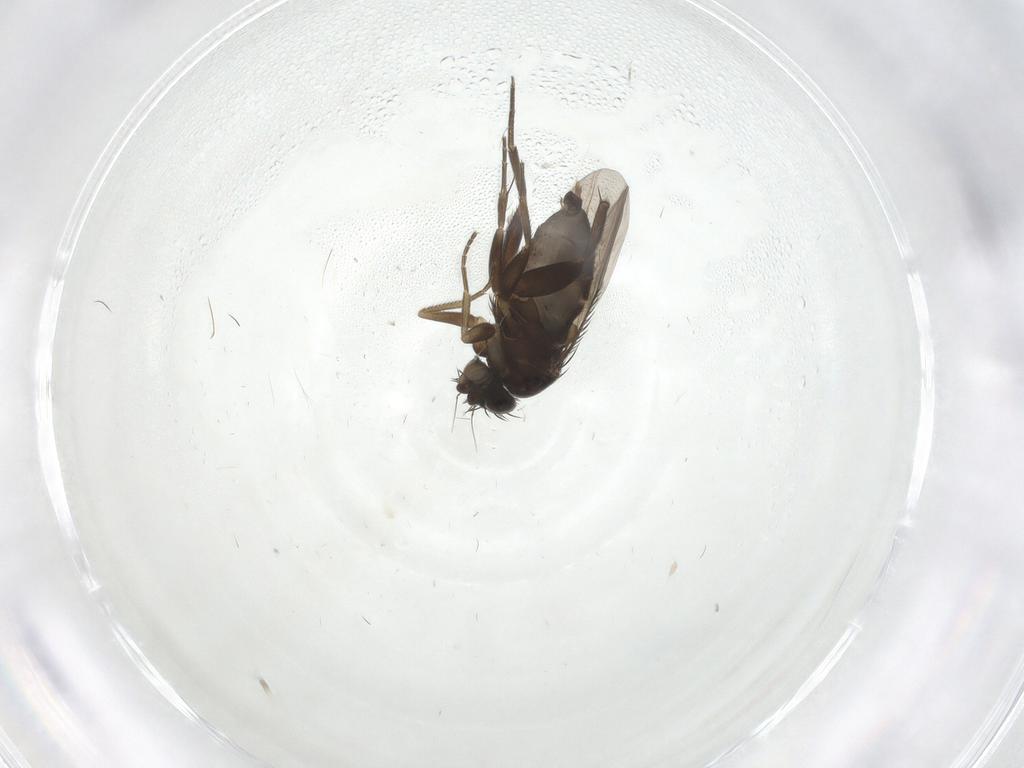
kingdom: Animalia
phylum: Arthropoda
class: Insecta
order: Diptera
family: Phoridae
